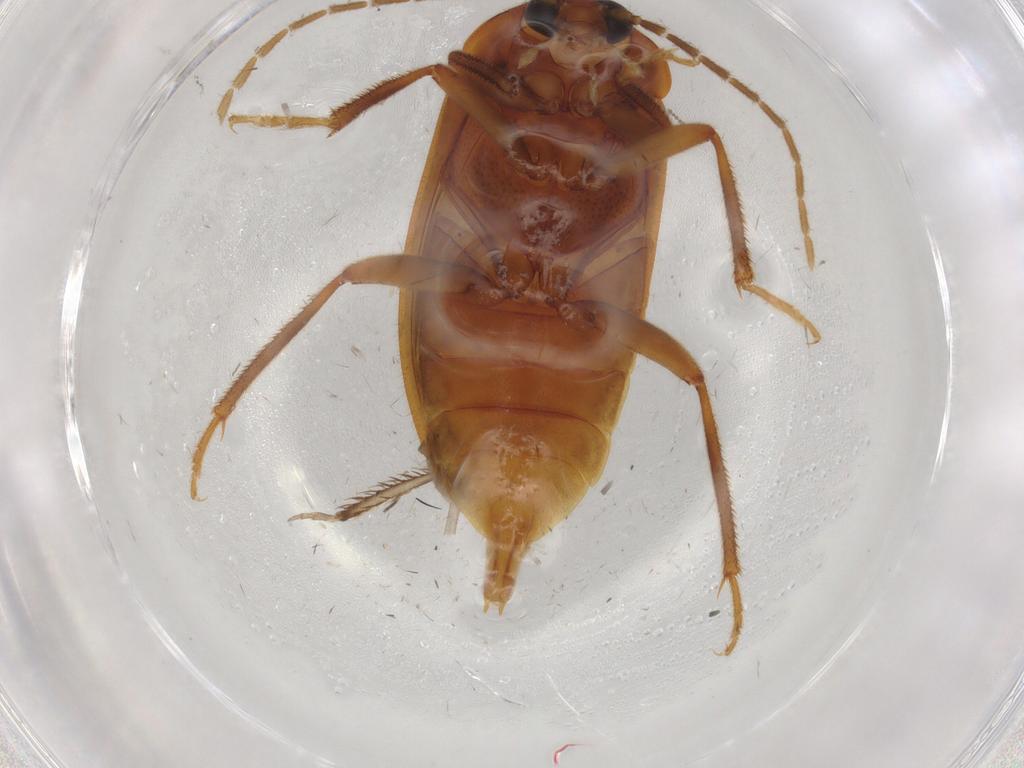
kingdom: Animalia
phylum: Arthropoda
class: Insecta
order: Coleoptera
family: Ptilodactylidae
